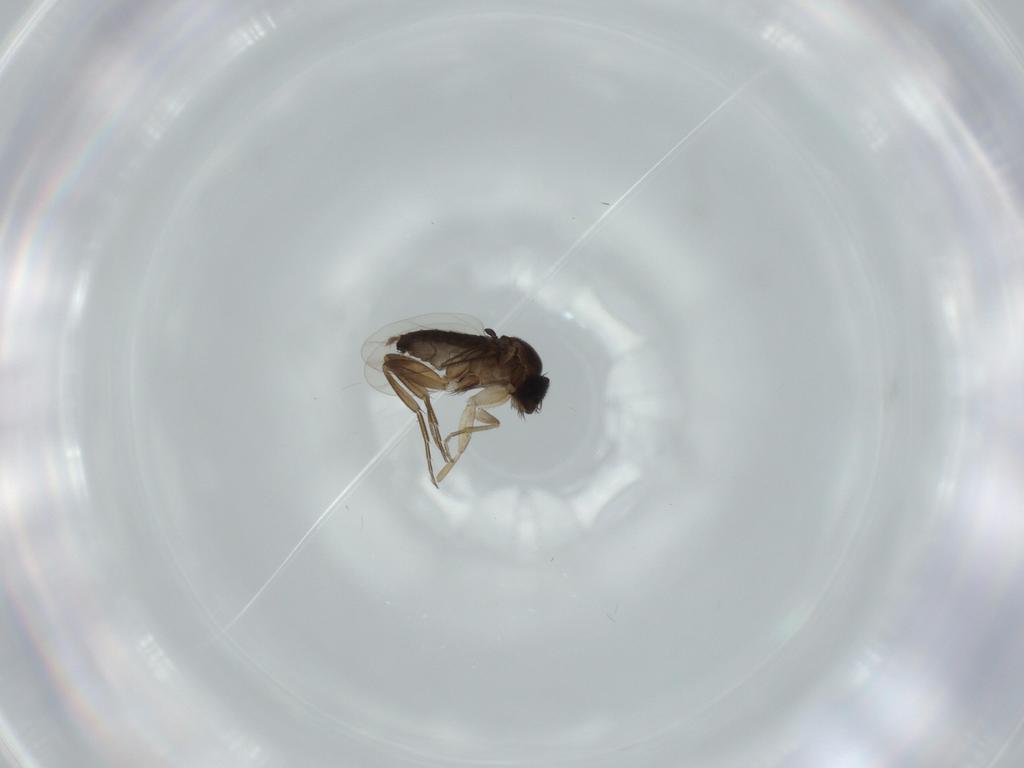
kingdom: Animalia
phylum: Arthropoda
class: Insecta
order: Diptera
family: Phoridae
